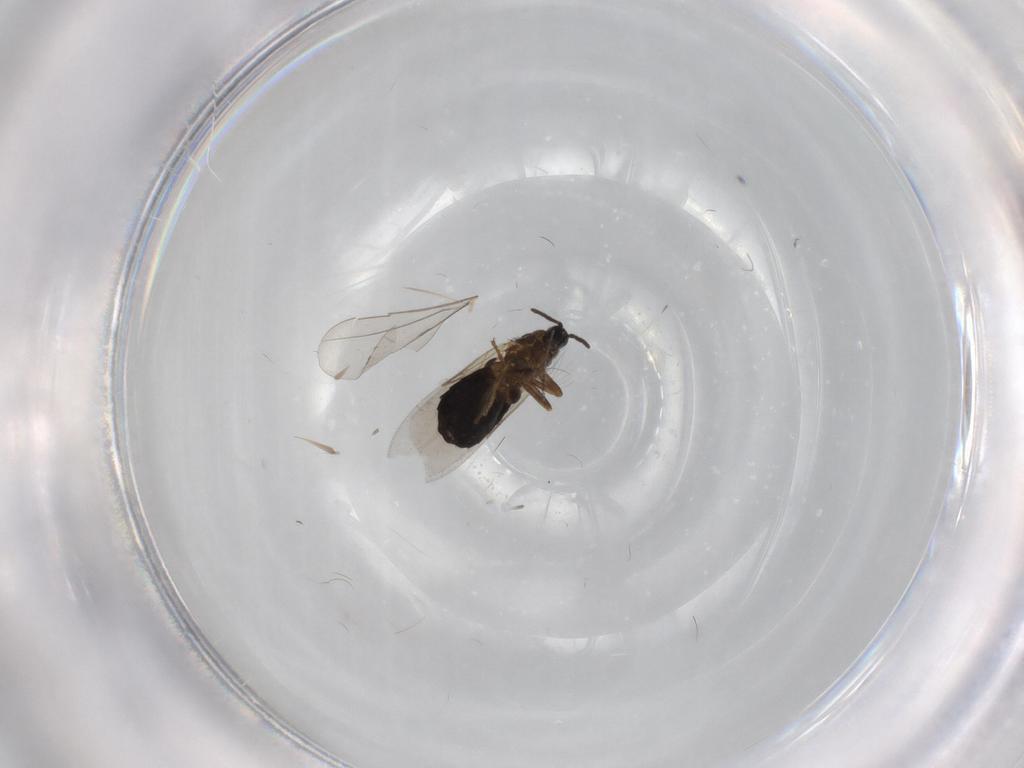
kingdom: Animalia
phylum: Arthropoda
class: Insecta
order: Diptera
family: Scatopsidae
